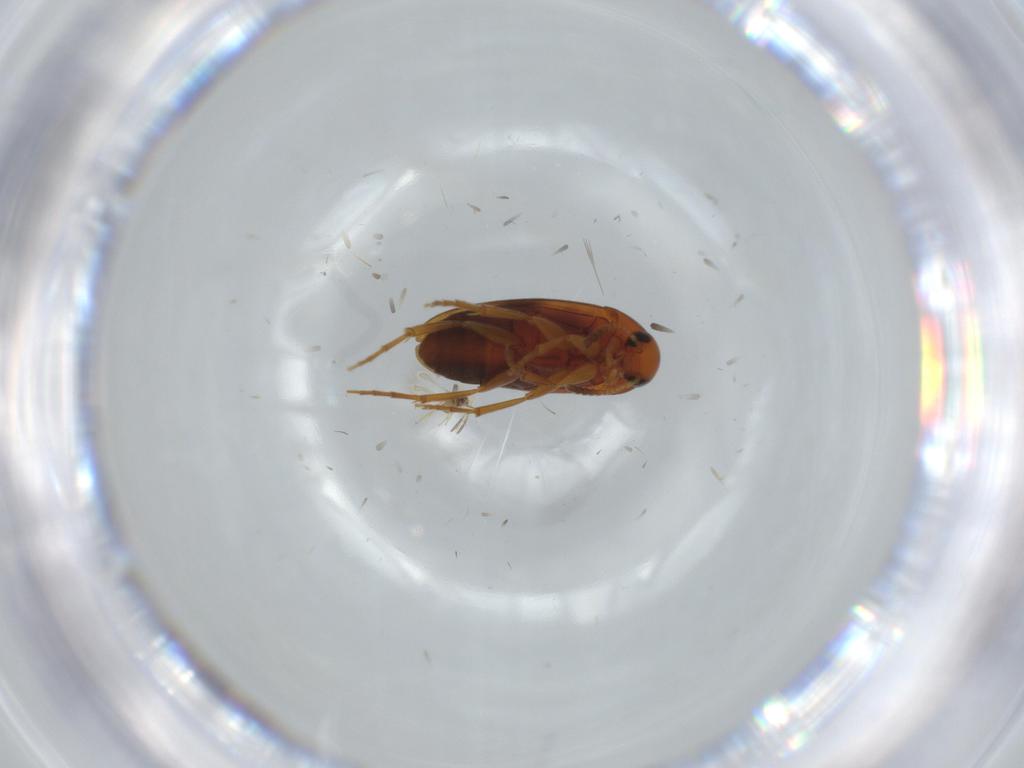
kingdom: Animalia
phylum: Arthropoda
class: Insecta
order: Coleoptera
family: Scraptiidae
